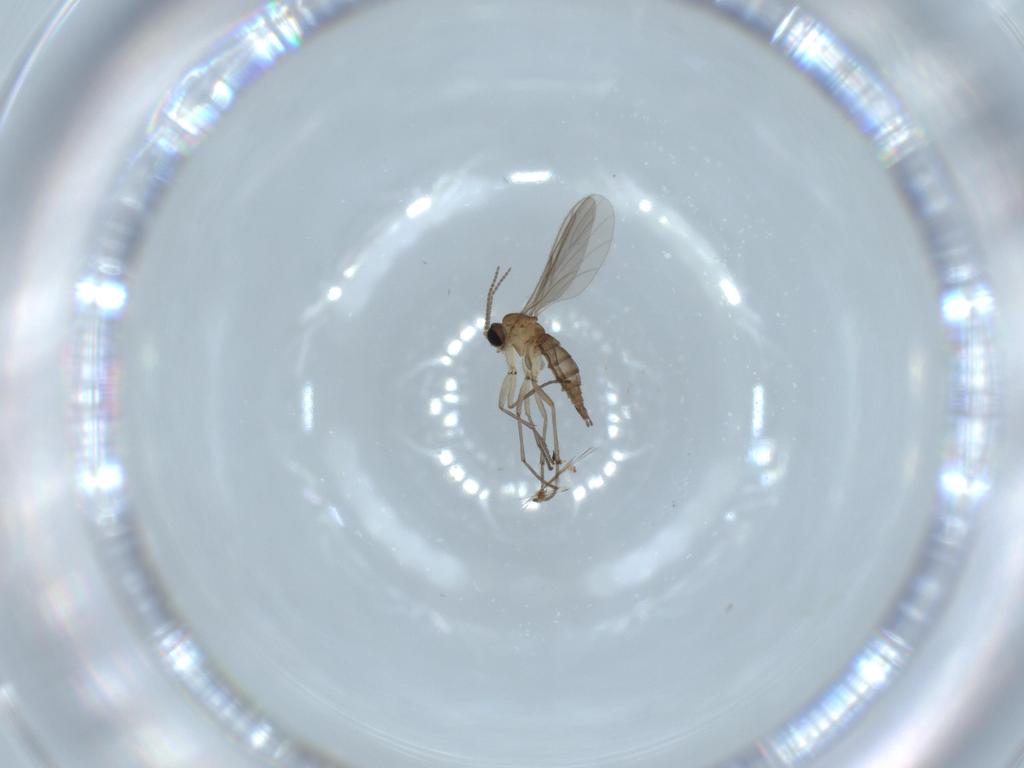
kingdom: Animalia
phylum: Arthropoda
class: Insecta
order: Diptera
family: Sciaridae
